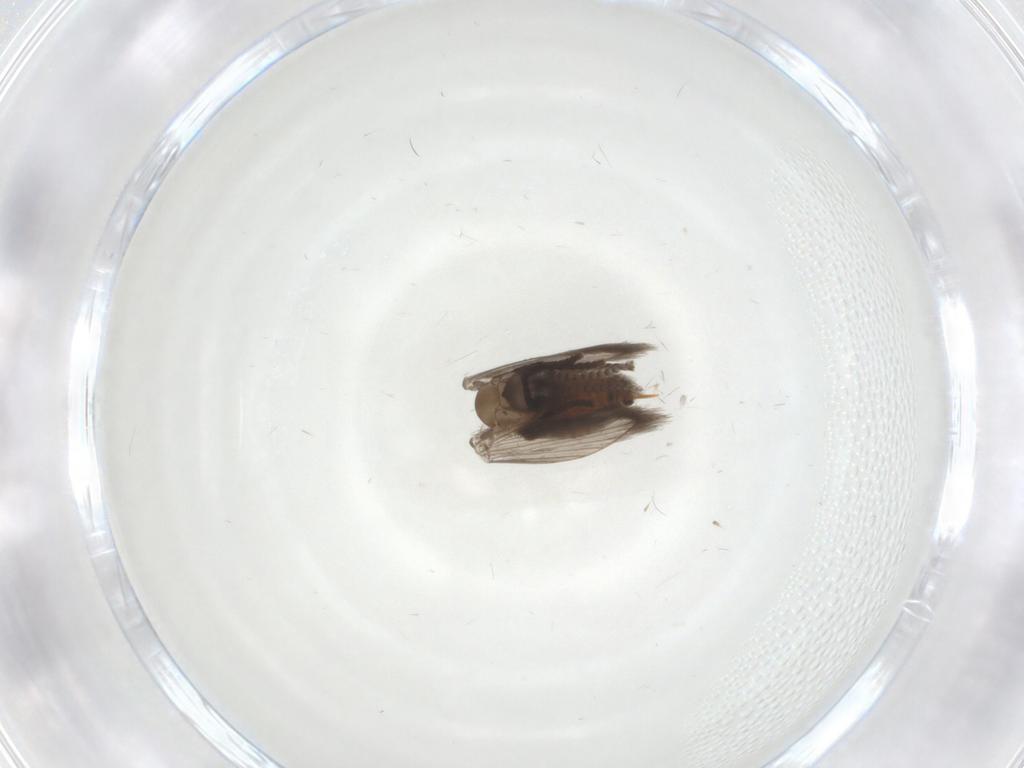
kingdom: Animalia
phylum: Arthropoda
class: Insecta
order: Diptera
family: Psychodidae
